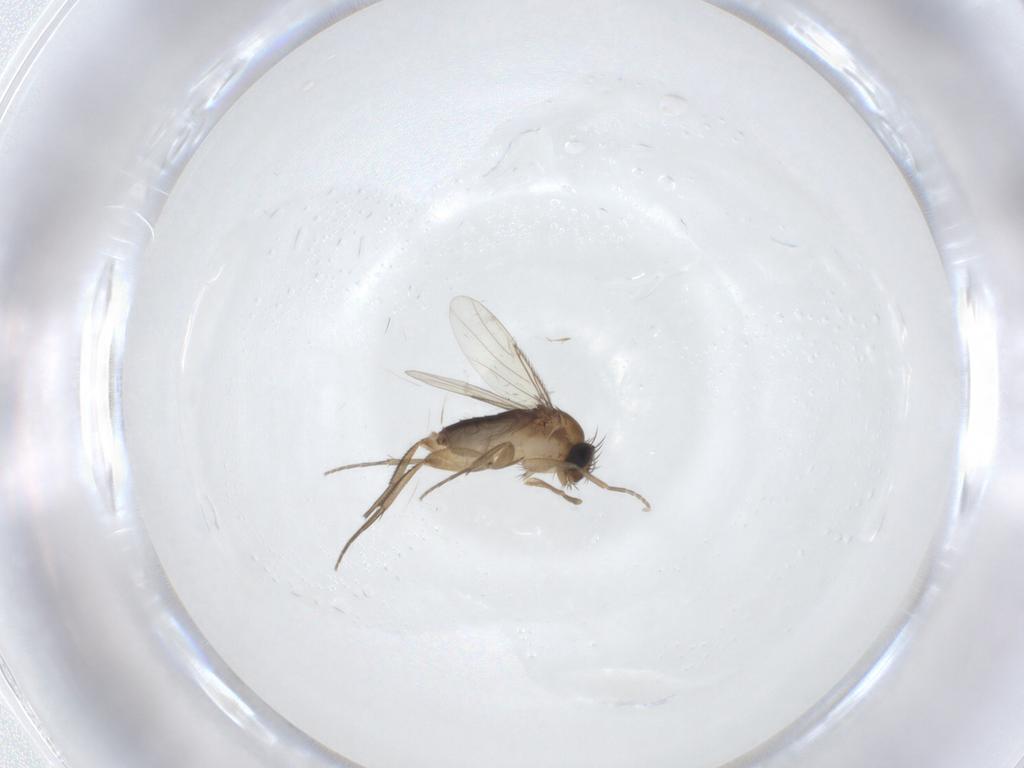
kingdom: Animalia
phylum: Arthropoda
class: Insecta
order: Diptera
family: Phoridae
